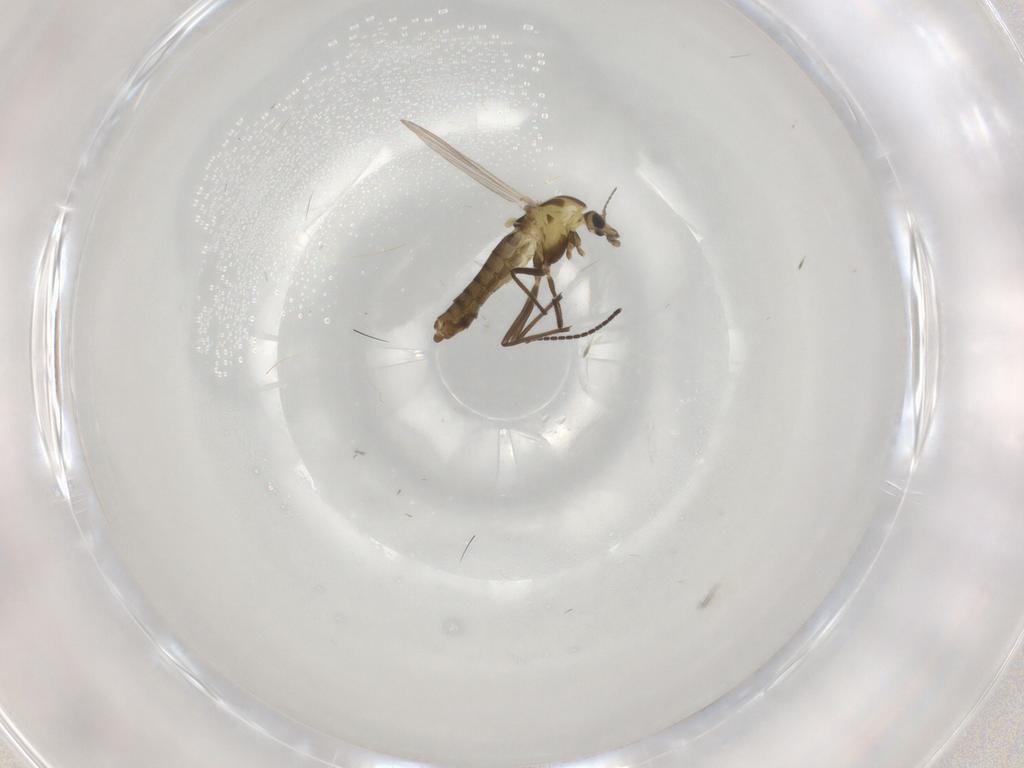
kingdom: Animalia
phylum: Arthropoda
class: Insecta
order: Diptera
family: Chironomidae
